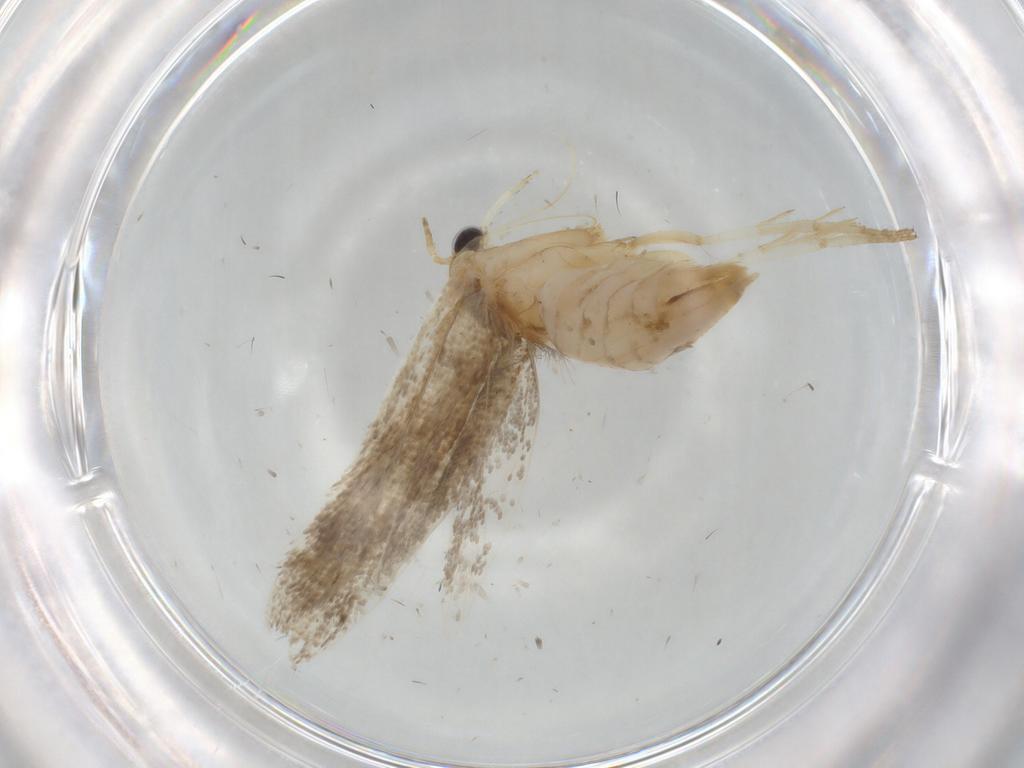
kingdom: Animalia
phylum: Arthropoda
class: Insecta
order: Lepidoptera
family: Plutellidae
